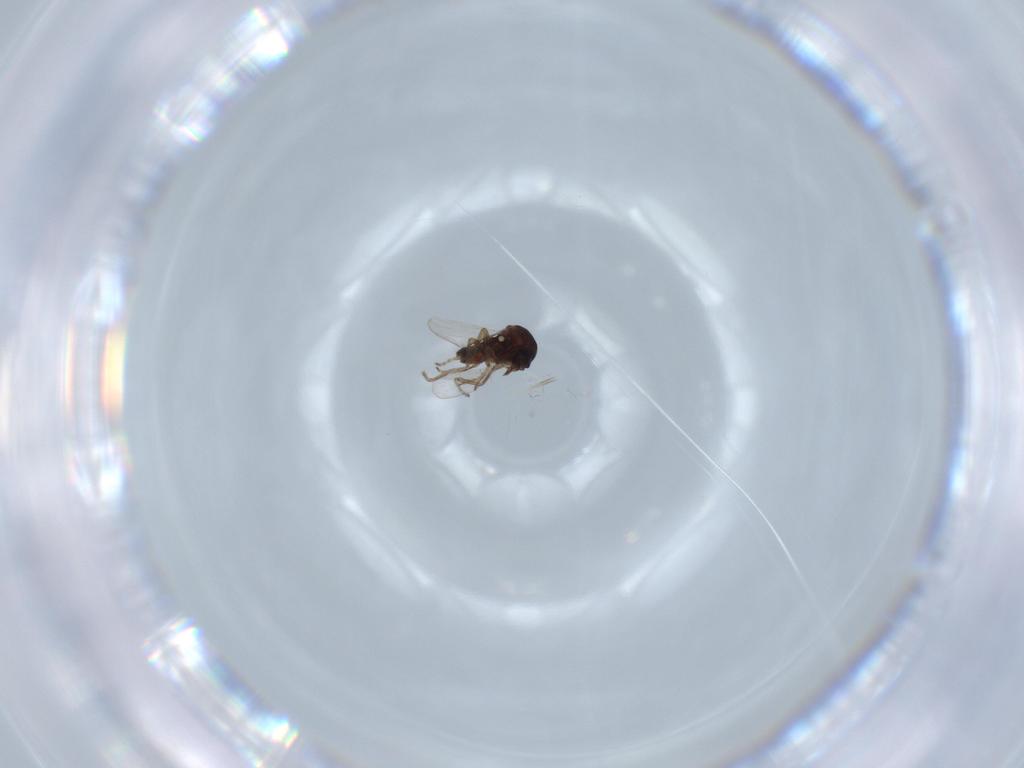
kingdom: Animalia
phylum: Arthropoda
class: Insecta
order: Diptera
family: Ceratopogonidae
